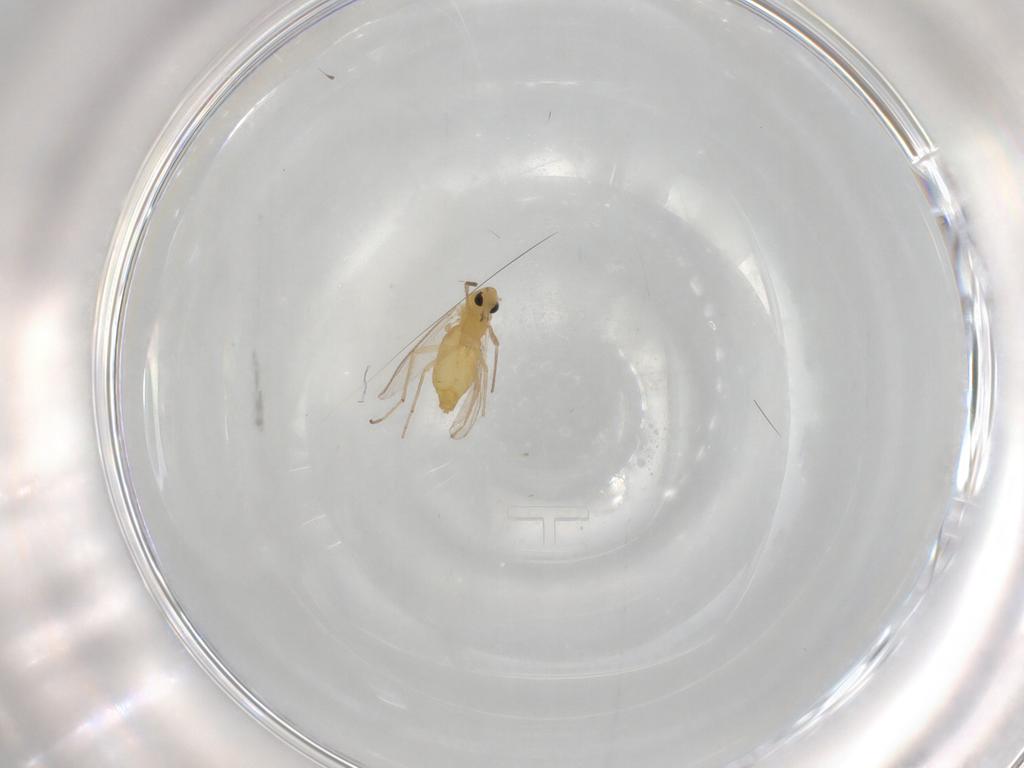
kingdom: Animalia
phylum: Arthropoda
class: Insecta
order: Diptera
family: Chironomidae
